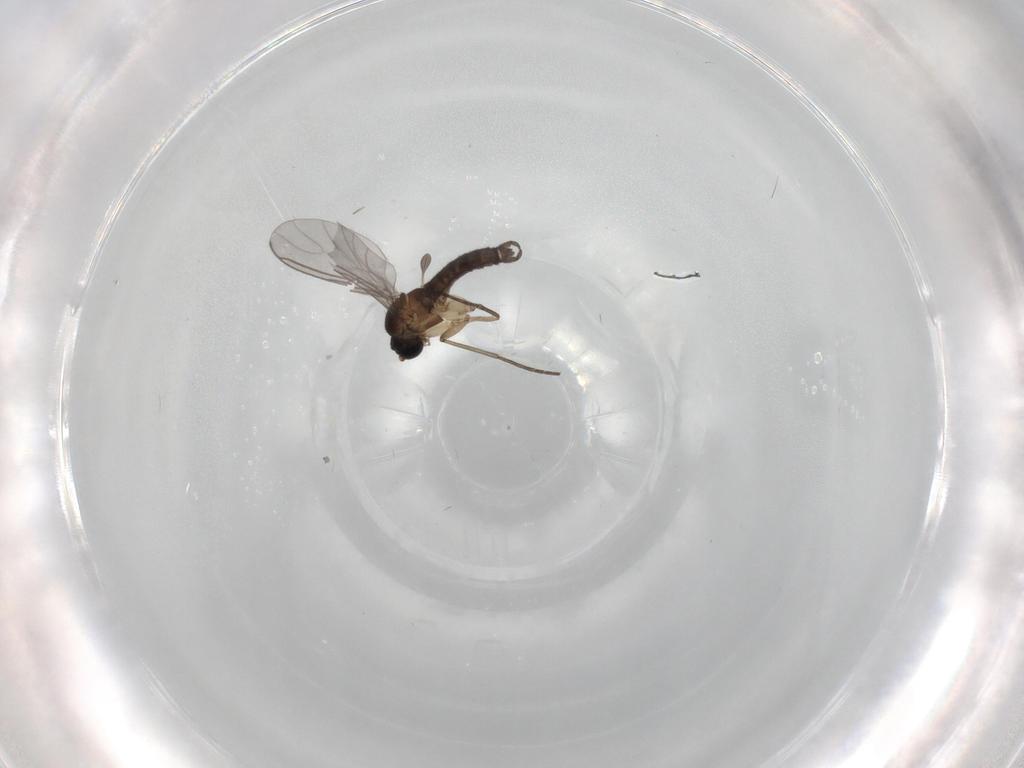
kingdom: Animalia
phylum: Arthropoda
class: Insecta
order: Diptera
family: Sciaridae
